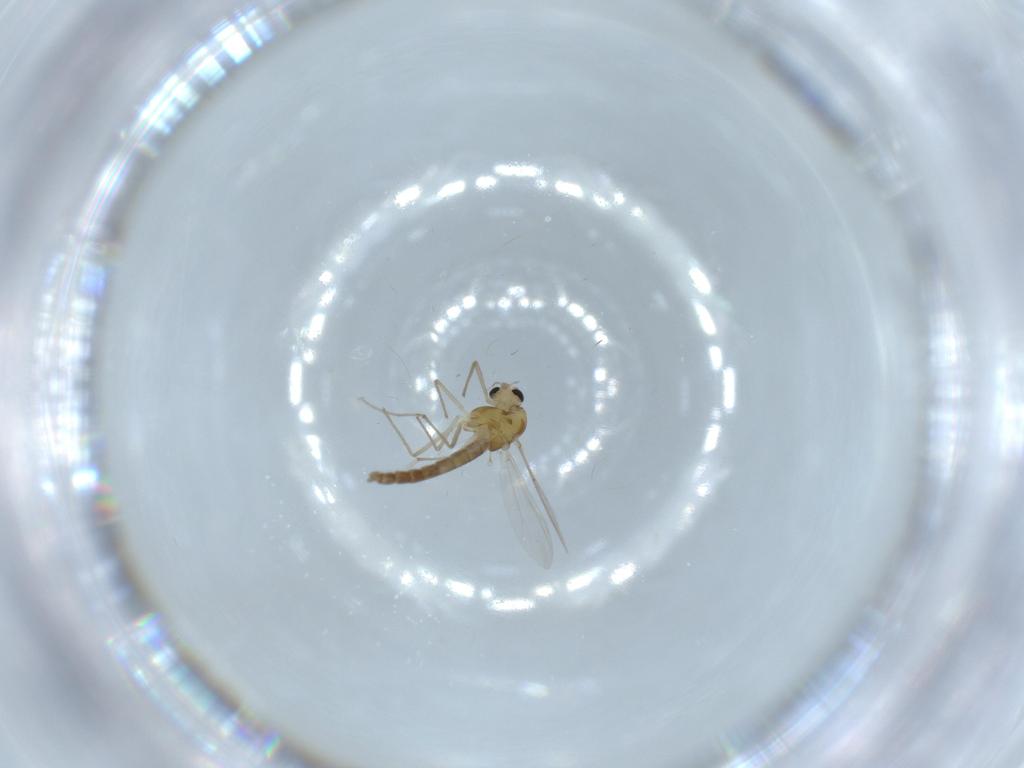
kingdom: Animalia
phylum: Arthropoda
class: Insecta
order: Diptera
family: Chironomidae
